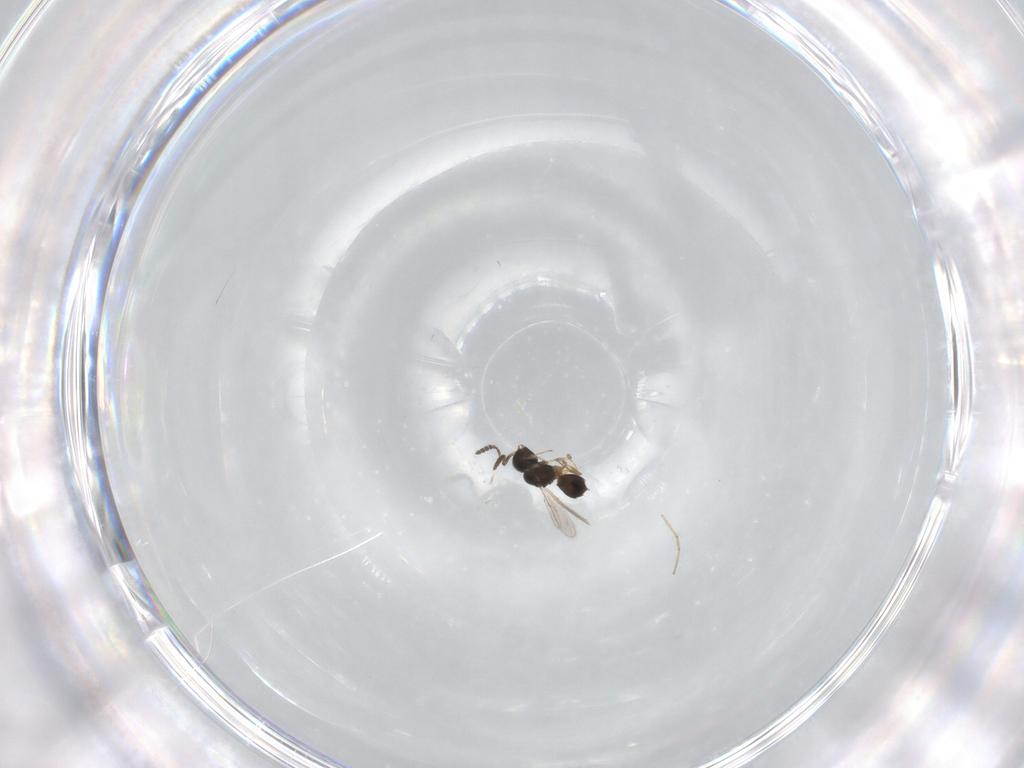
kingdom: Animalia
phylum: Arthropoda
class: Insecta
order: Hymenoptera
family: Scelionidae
